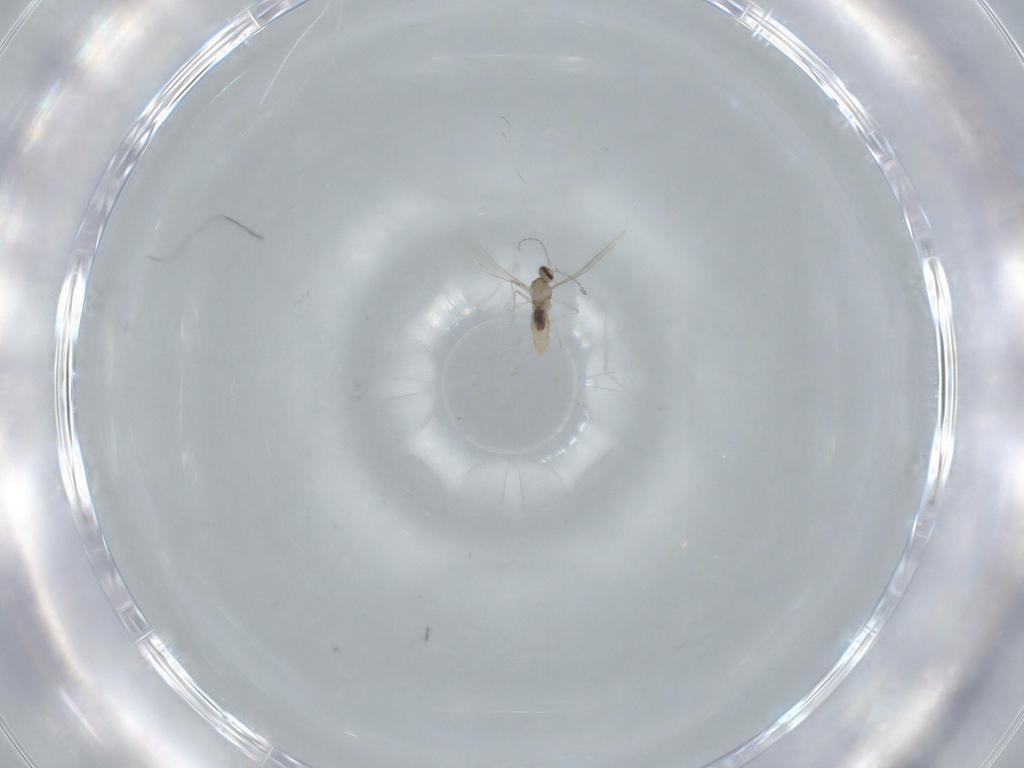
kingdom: Animalia
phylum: Arthropoda
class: Insecta
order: Diptera
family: Cecidomyiidae
